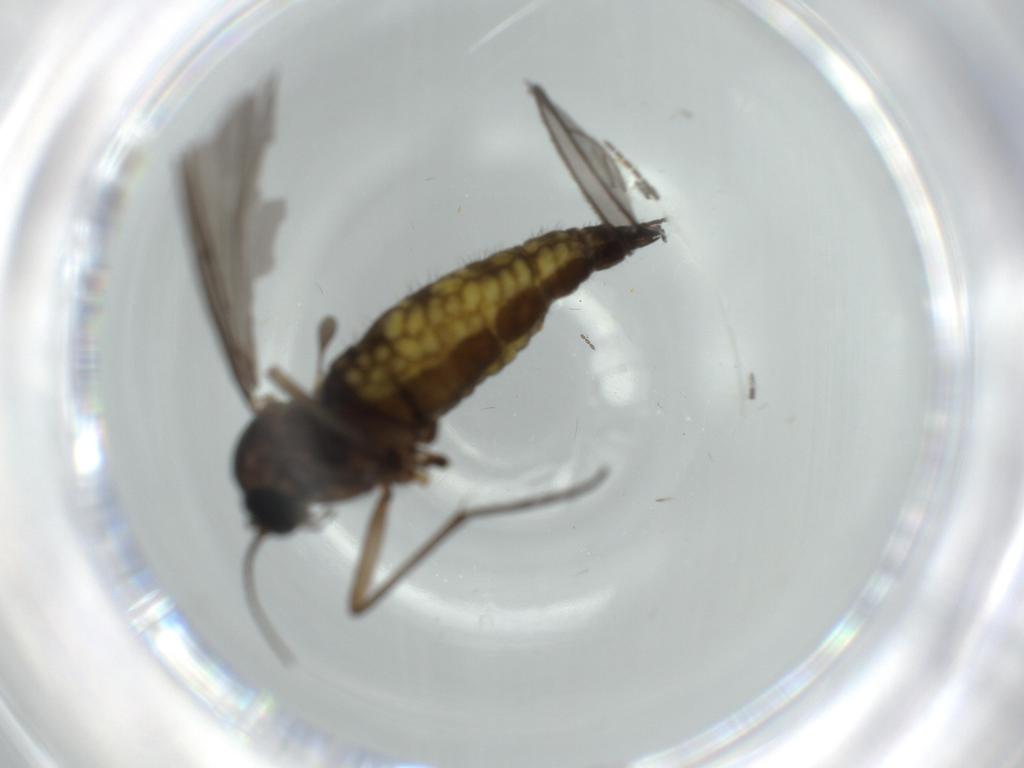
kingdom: Animalia
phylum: Arthropoda
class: Insecta
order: Diptera
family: Sciaridae
